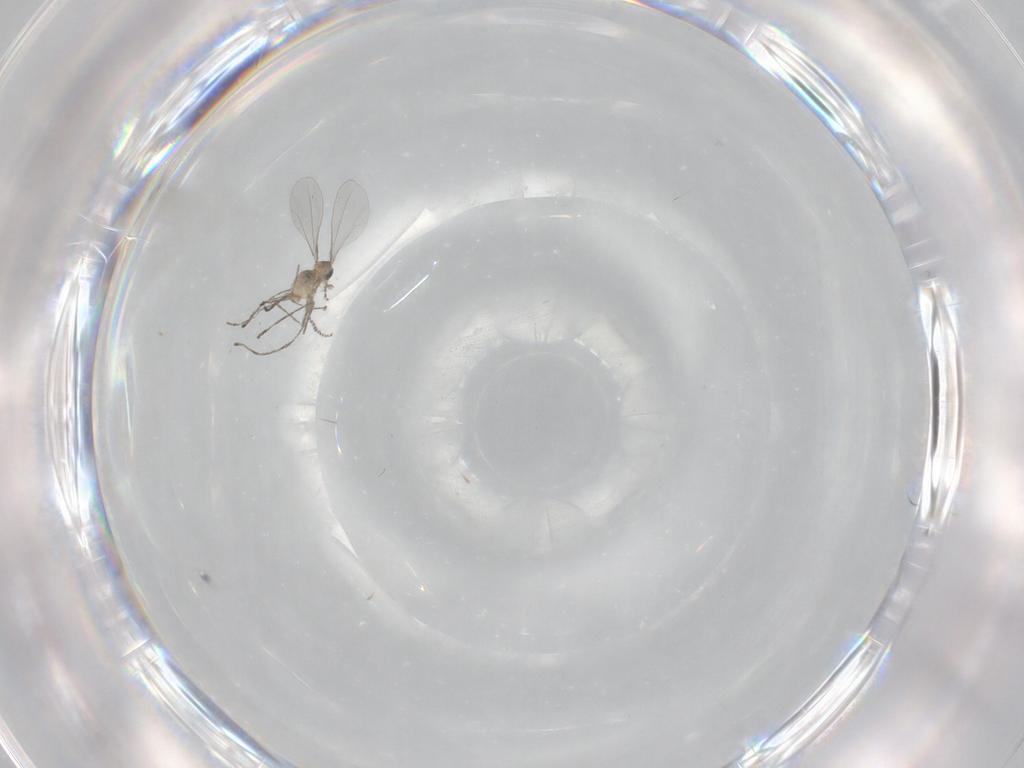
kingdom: Animalia
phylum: Arthropoda
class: Insecta
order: Diptera
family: Cecidomyiidae
